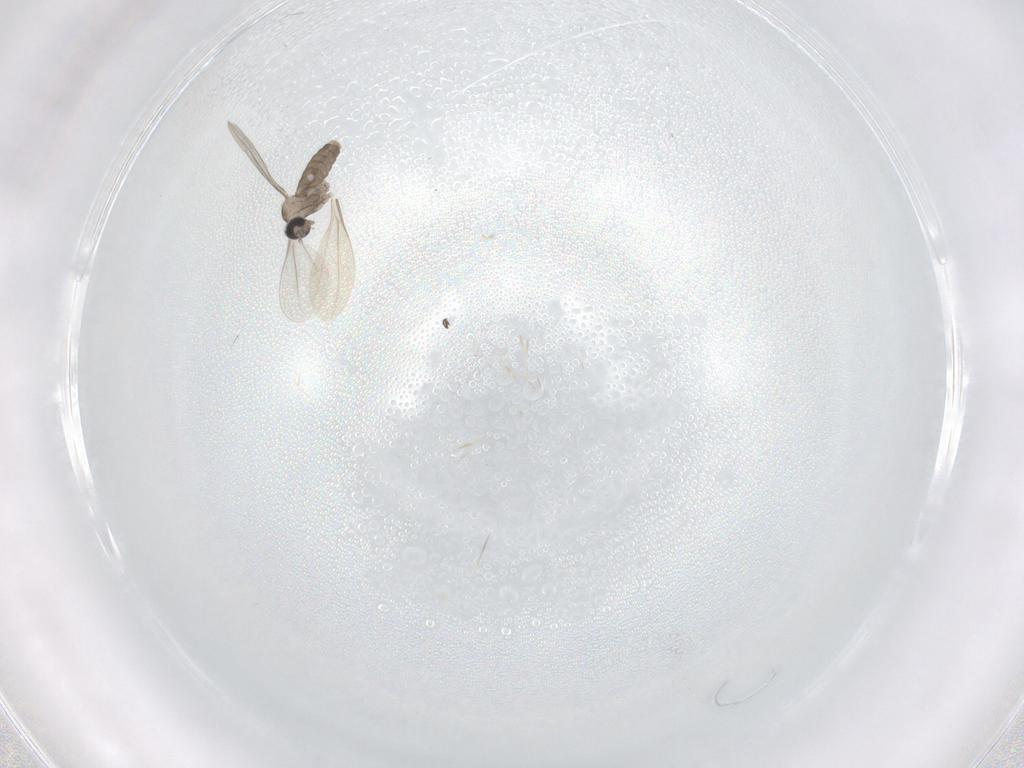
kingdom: Animalia
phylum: Arthropoda
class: Insecta
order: Diptera
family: Cecidomyiidae
